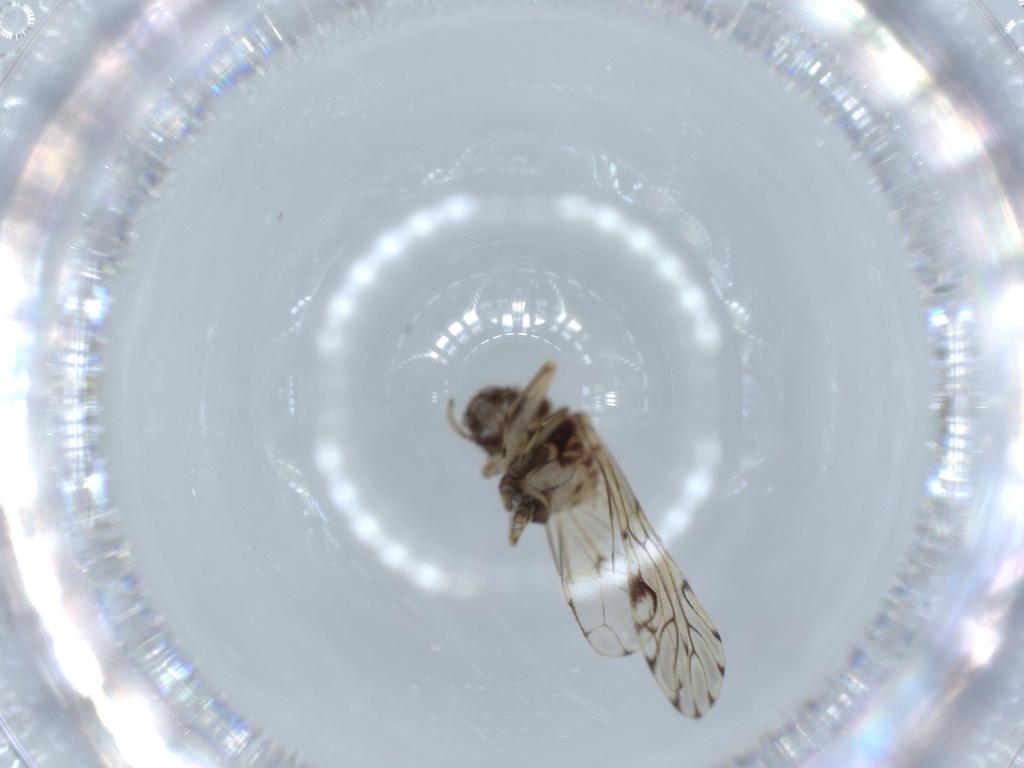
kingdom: Animalia
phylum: Arthropoda
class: Insecta
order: Psocodea
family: Epipsocidae
